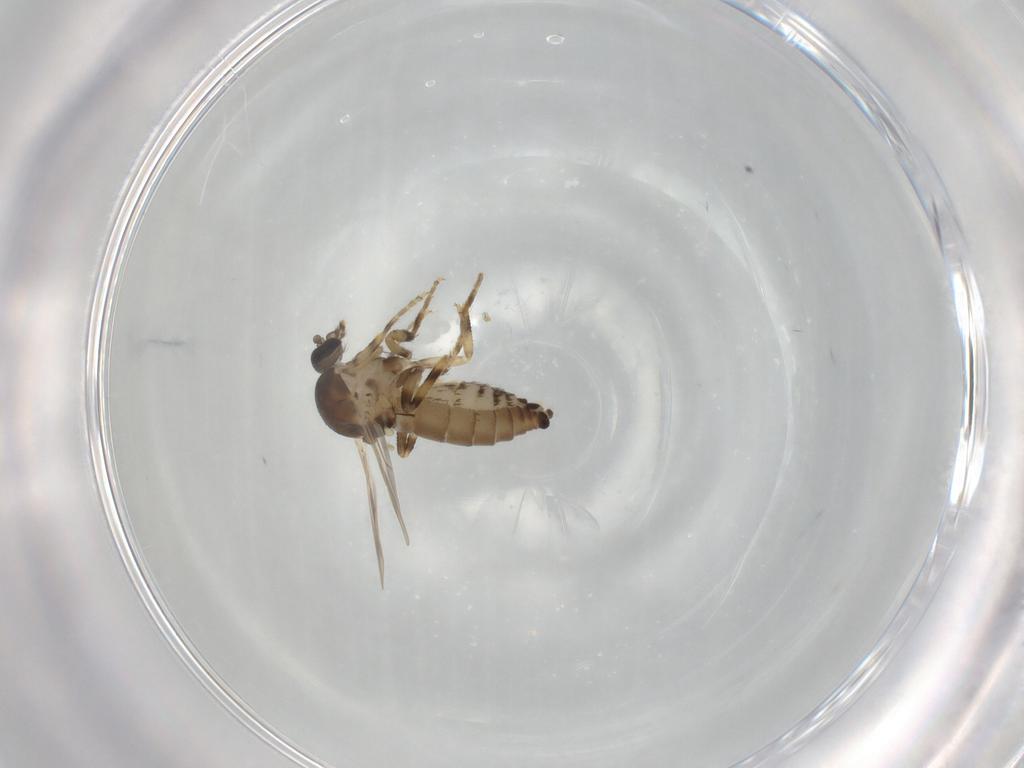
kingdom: Animalia
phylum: Arthropoda
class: Insecta
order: Diptera
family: Ceratopogonidae
